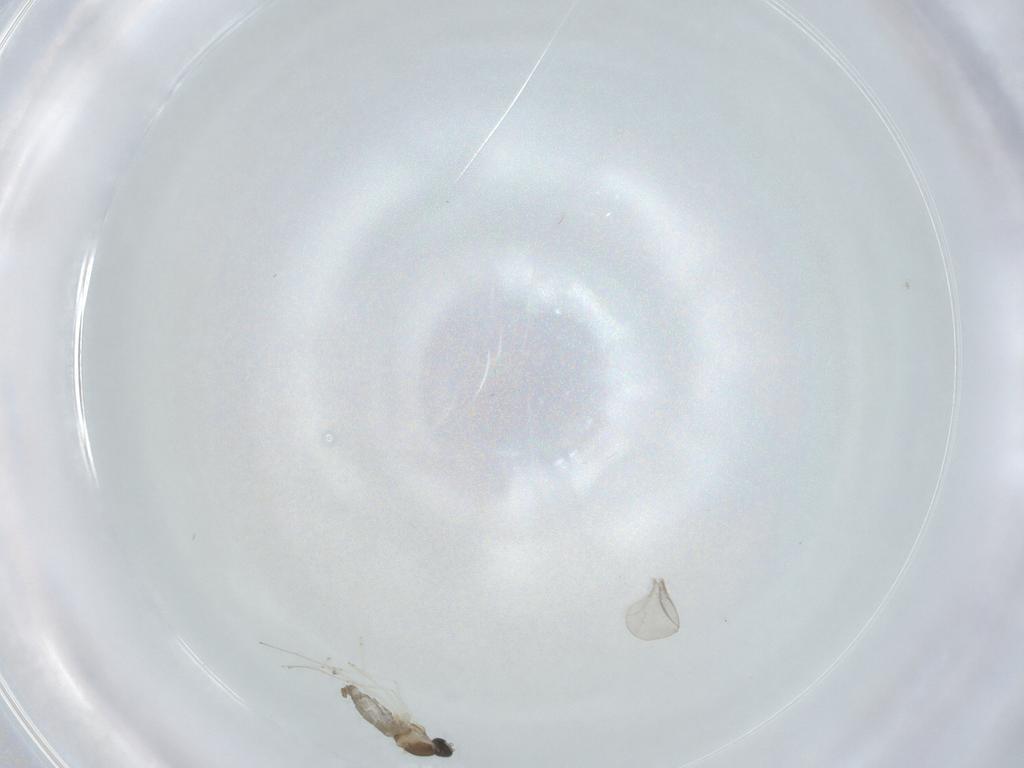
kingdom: Animalia
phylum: Arthropoda
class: Insecta
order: Diptera
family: Cecidomyiidae
